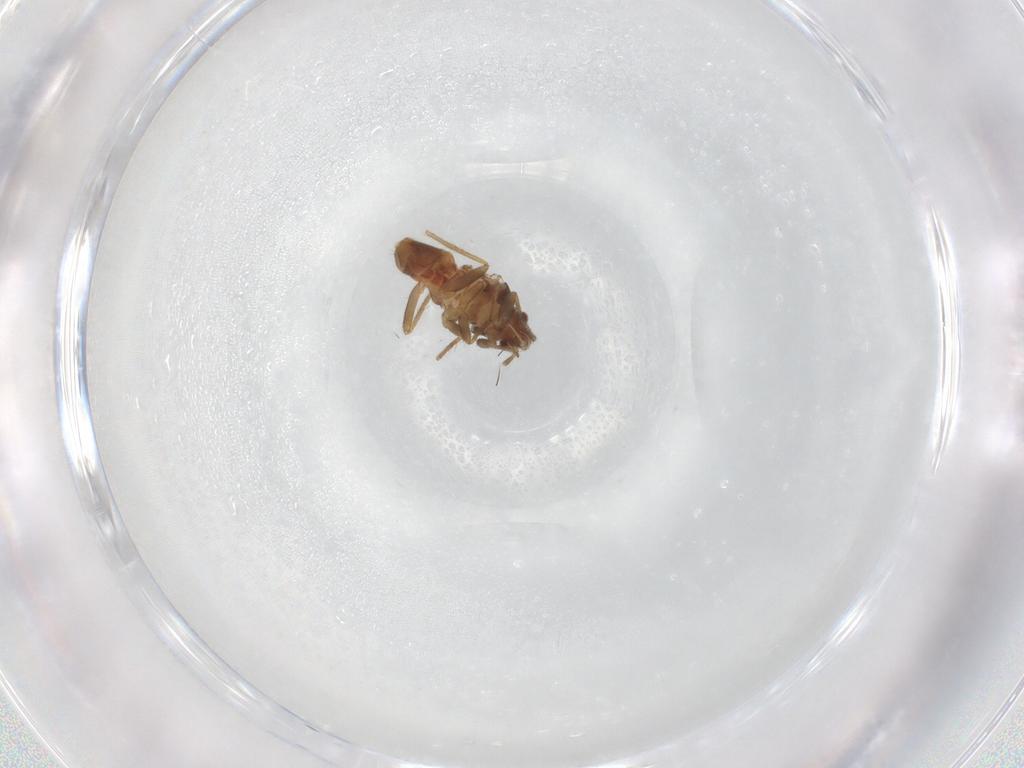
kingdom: Animalia
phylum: Arthropoda
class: Insecta
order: Hemiptera
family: Ceratocombidae
